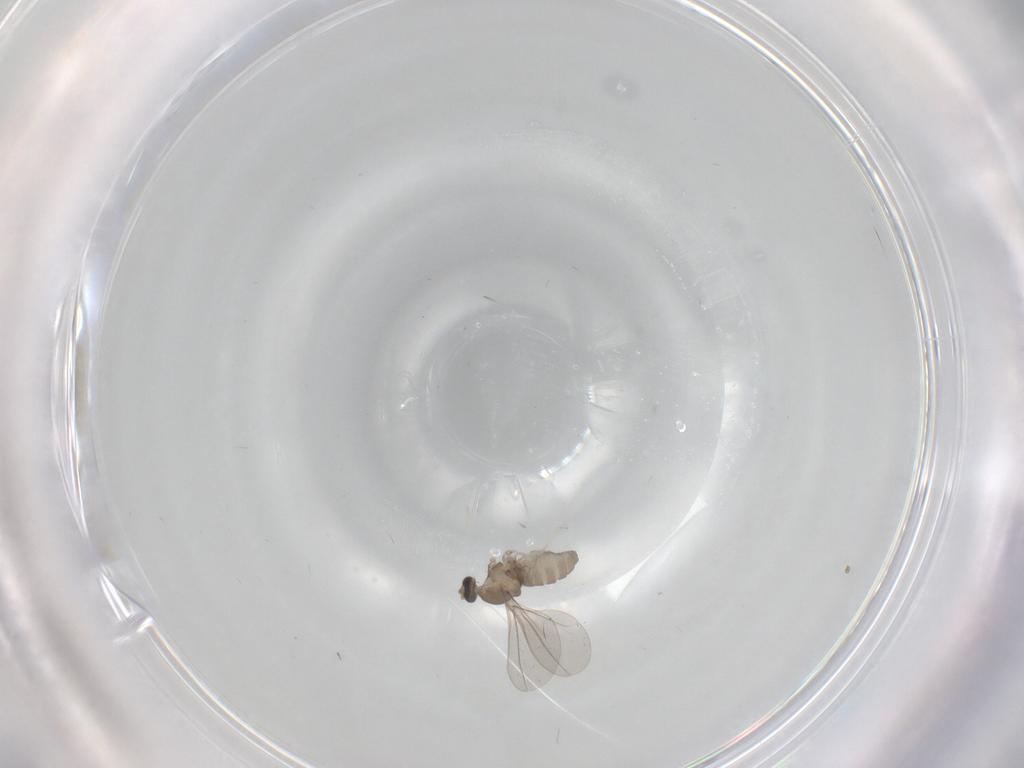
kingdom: Animalia
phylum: Arthropoda
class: Insecta
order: Diptera
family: Cecidomyiidae
